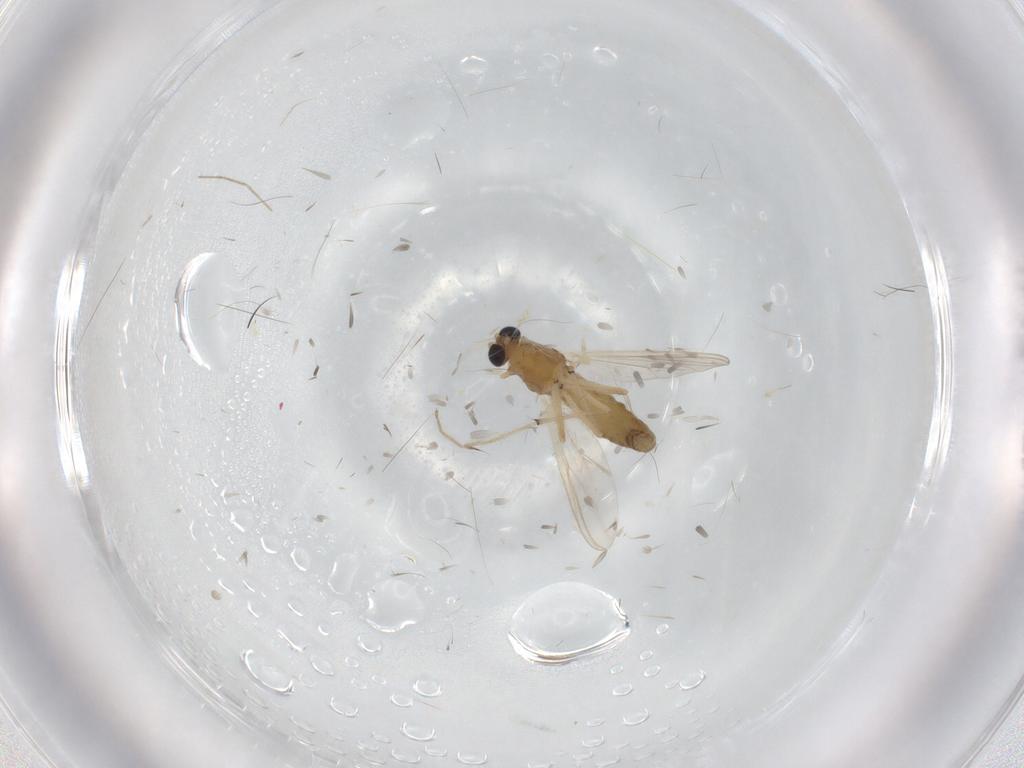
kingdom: Animalia
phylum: Arthropoda
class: Insecta
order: Diptera
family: Chironomidae
